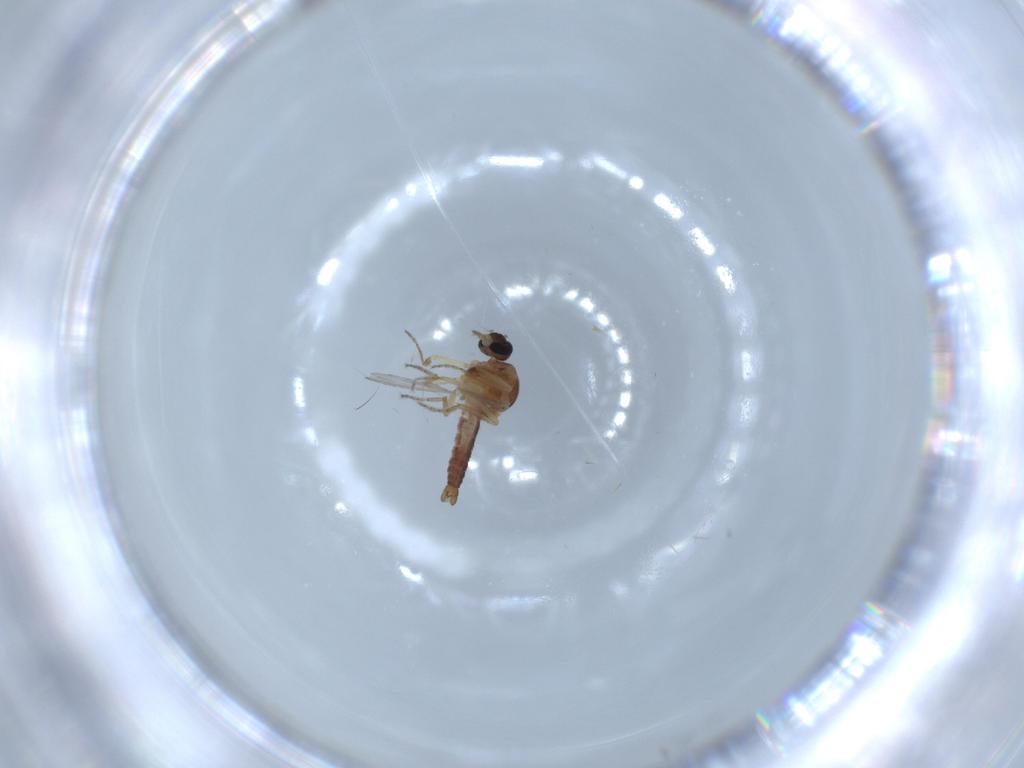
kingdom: Animalia
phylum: Arthropoda
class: Insecta
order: Diptera
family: Ceratopogonidae
